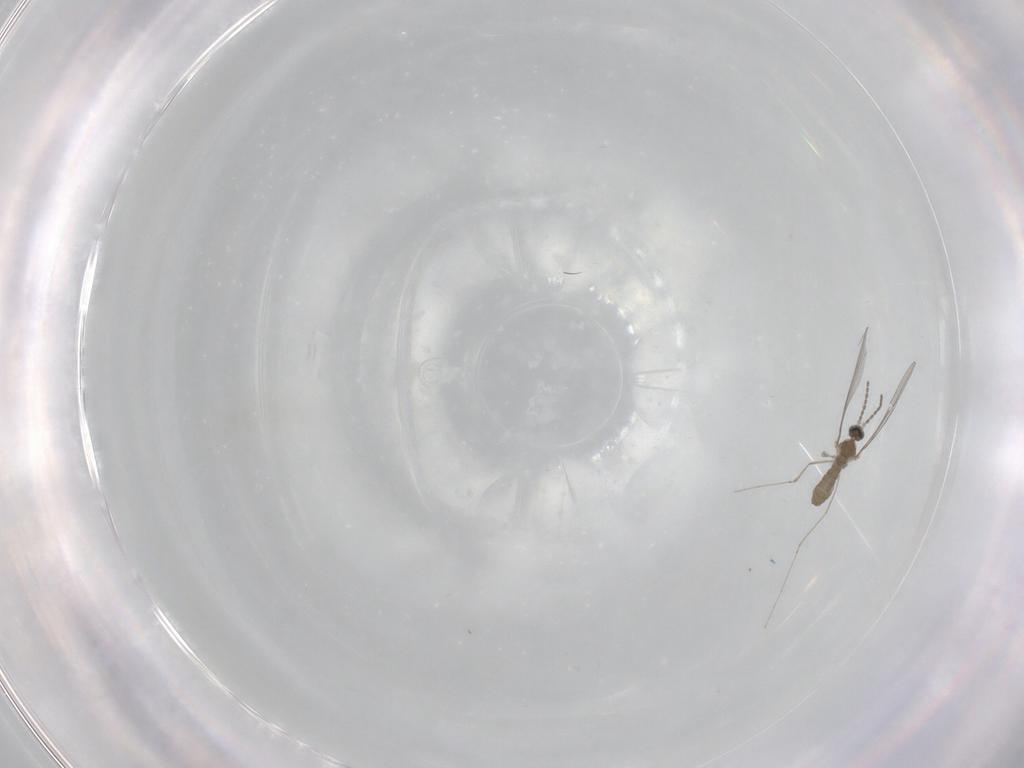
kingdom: Animalia
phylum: Arthropoda
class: Insecta
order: Diptera
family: Cecidomyiidae
